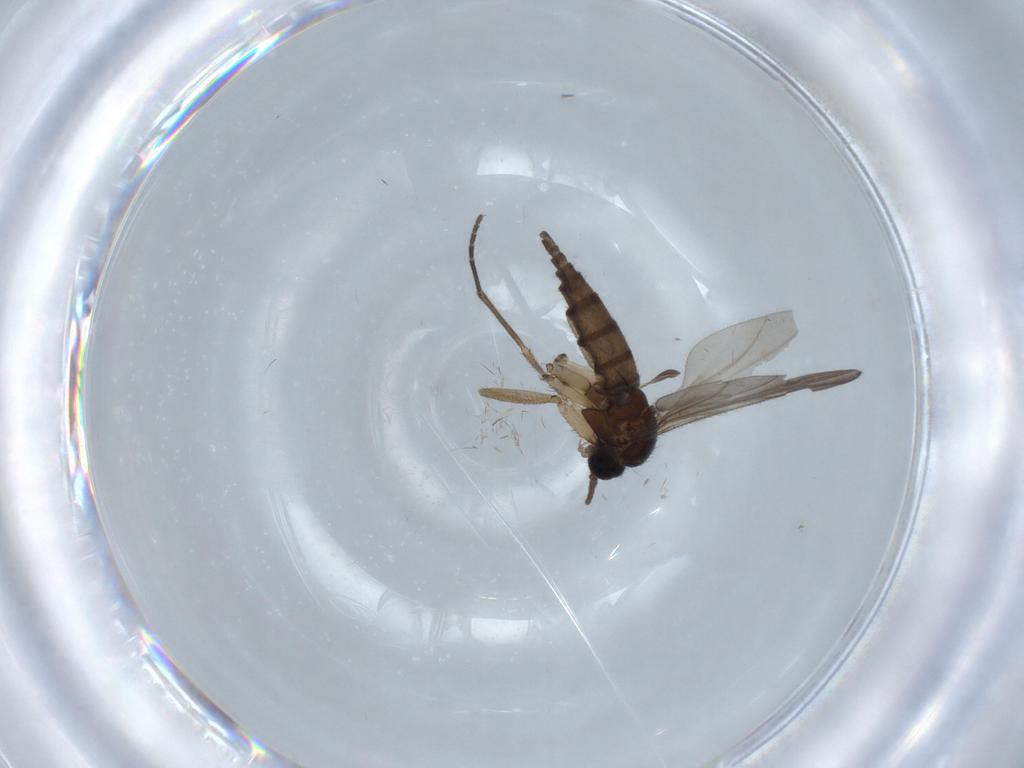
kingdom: Animalia
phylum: Arthropoda
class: Insecta
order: Diptera
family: Sciaridae
